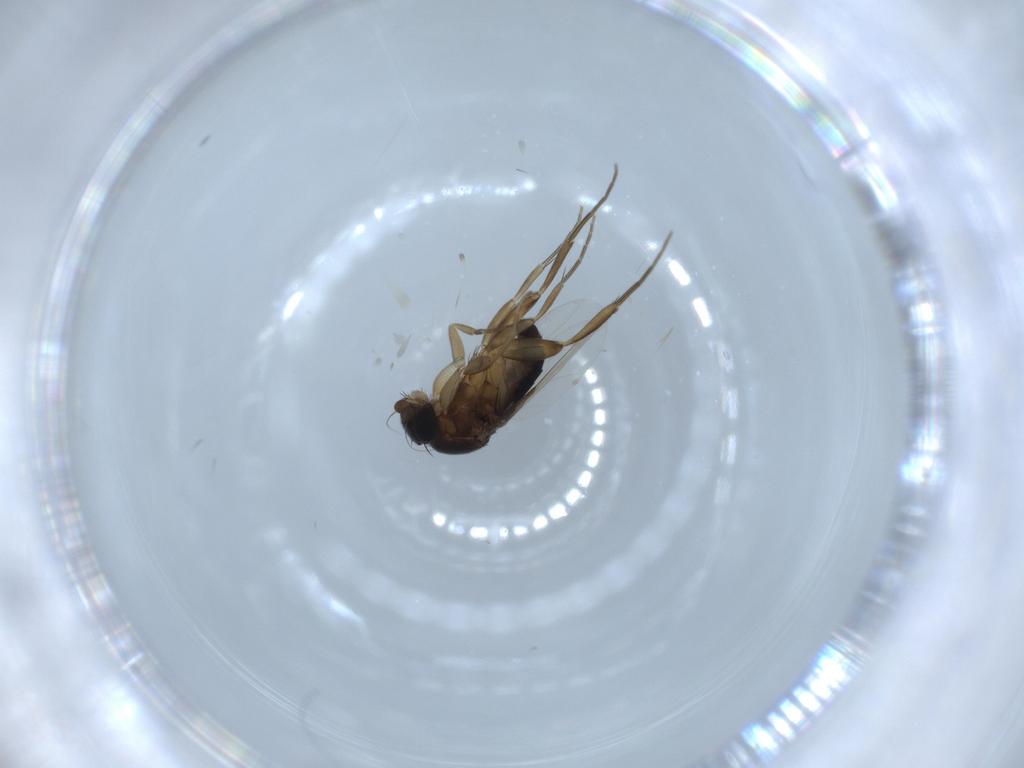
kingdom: Animalia
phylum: Arthropoda
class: Insecta
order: Diptera
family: Phoridae
